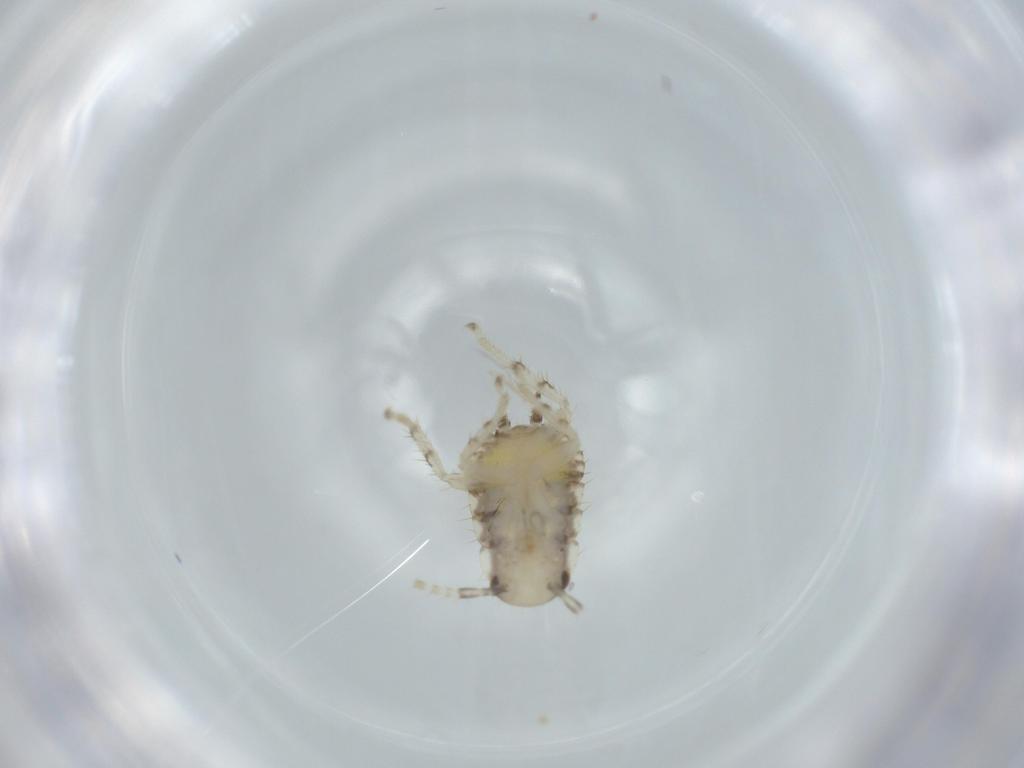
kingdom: Animalia
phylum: Arthropoda
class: Insecta
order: Blattodea
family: Ectobiidae
